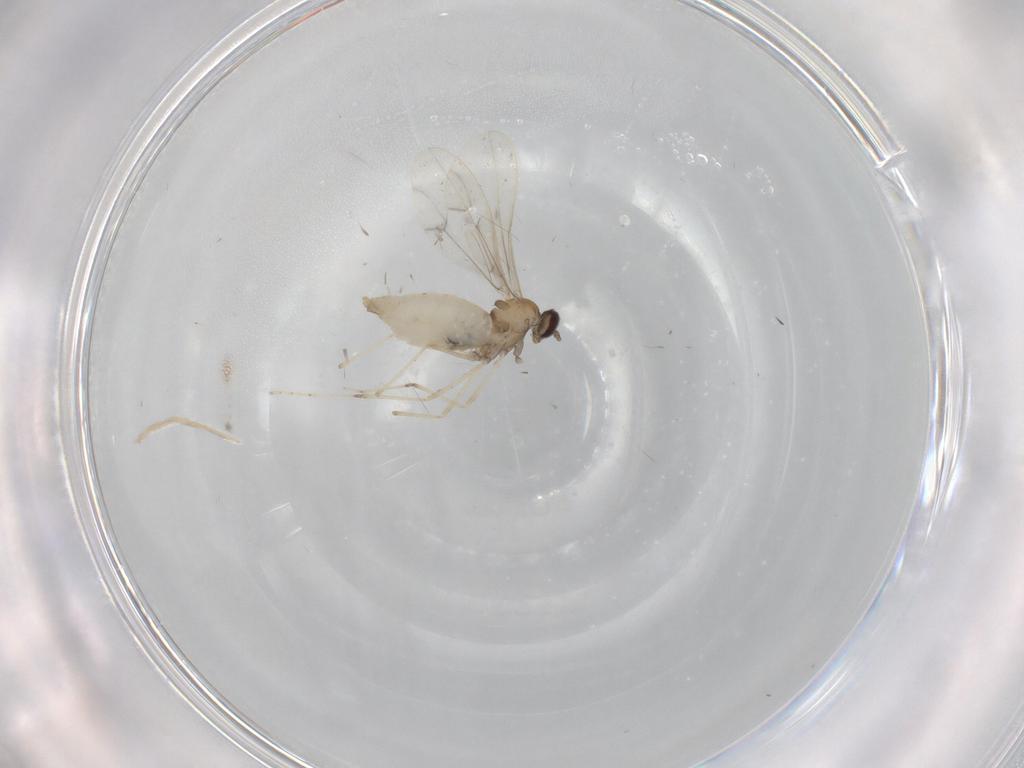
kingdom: Animalia
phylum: Arthropoda
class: Insecta
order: Diptera
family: Cecidomyiidae
